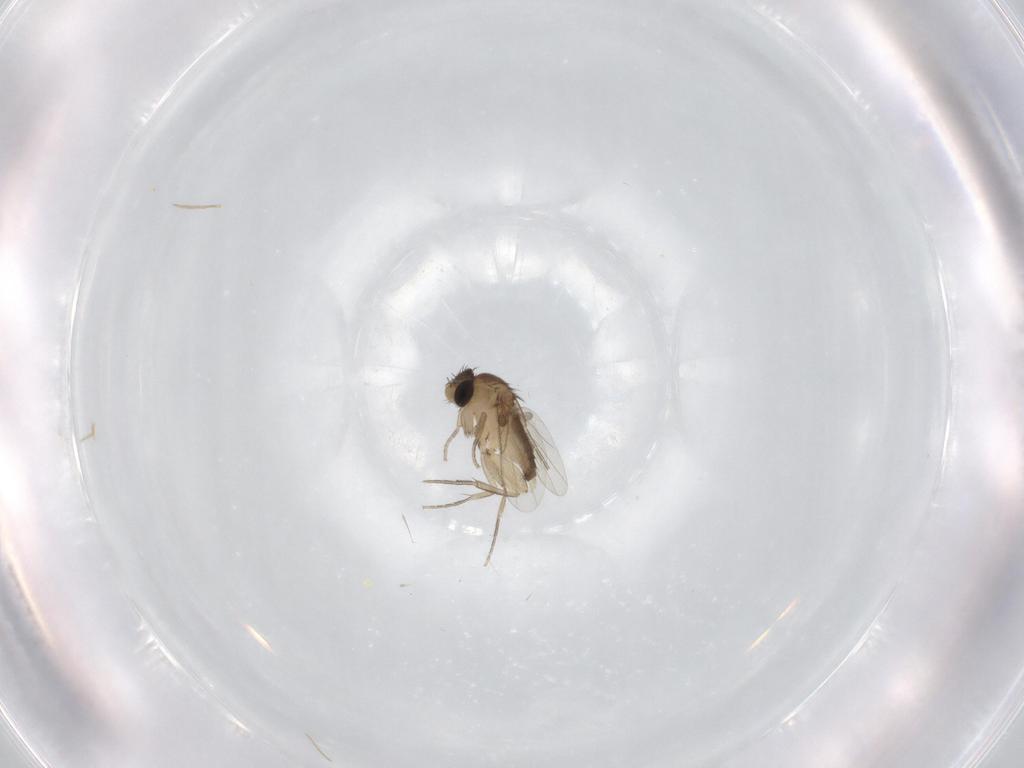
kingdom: Animalia
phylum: Arthropoda
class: Insecta
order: Diptera
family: Phoridae
